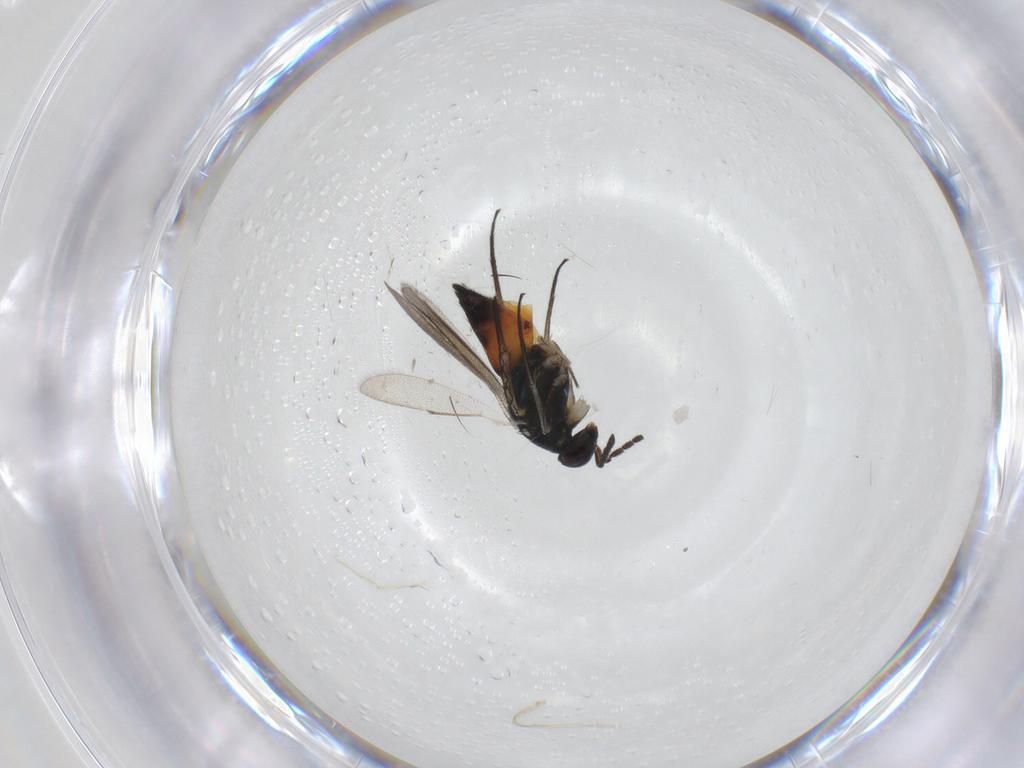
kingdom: Animalia
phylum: Arthropoda
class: Insecta
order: Hymenoptera
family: Eulophidae
